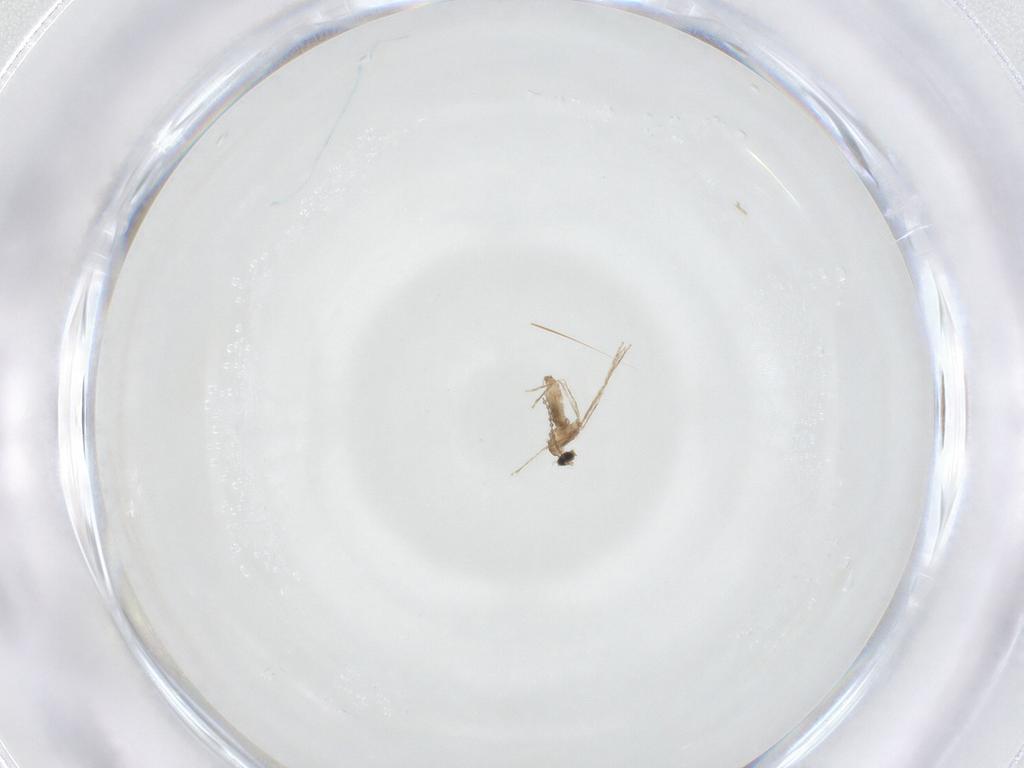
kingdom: Animalia
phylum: Arthropoda
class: Insecta
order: Diptera
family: Cecidomyiidae
